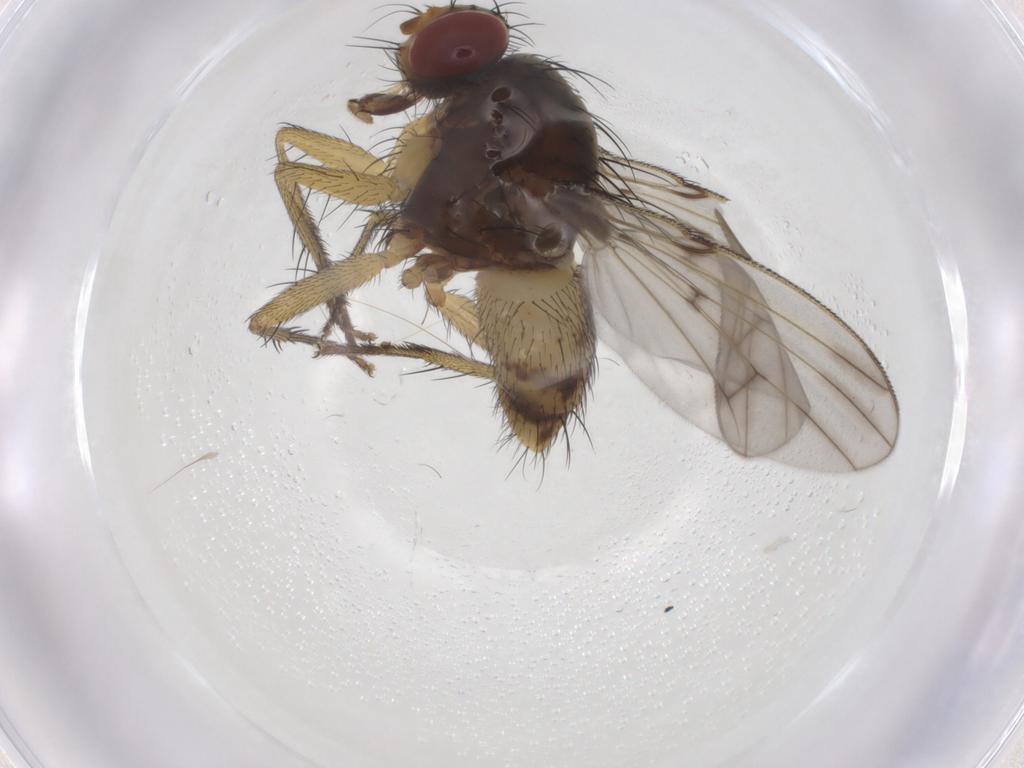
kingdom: Animalia
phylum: Arthropoda
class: Insecta
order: Diptera
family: Muscidae
